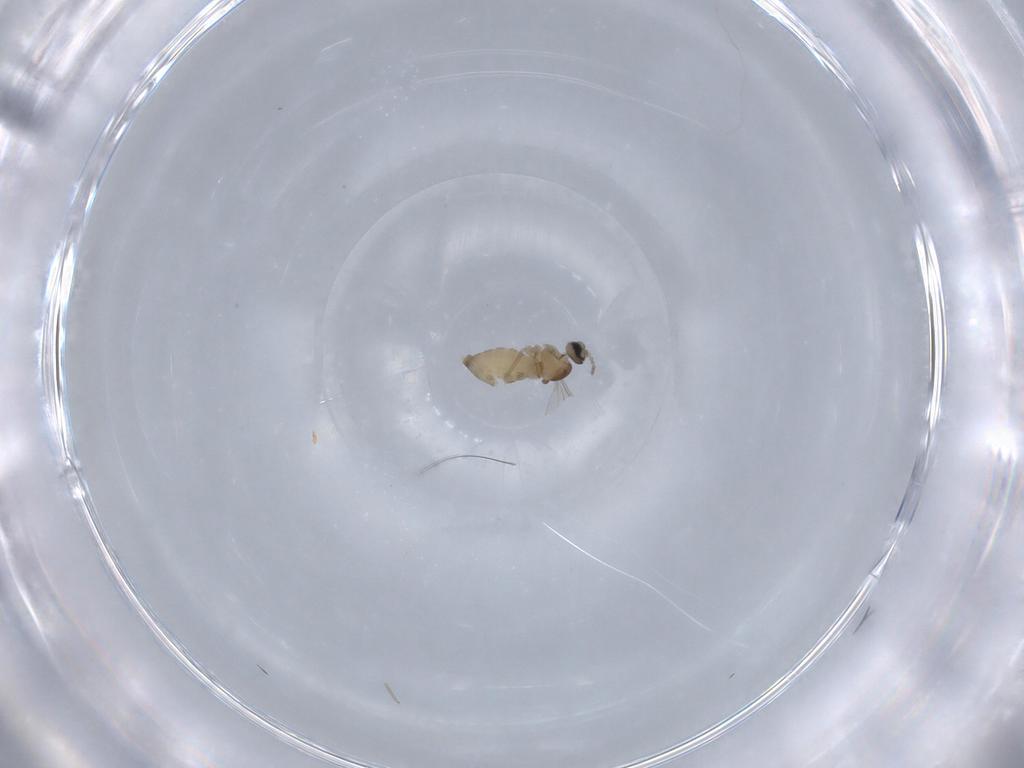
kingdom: Animalia
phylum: Arthropoda
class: Insecta
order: Diptera
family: Cecidomyiidae
